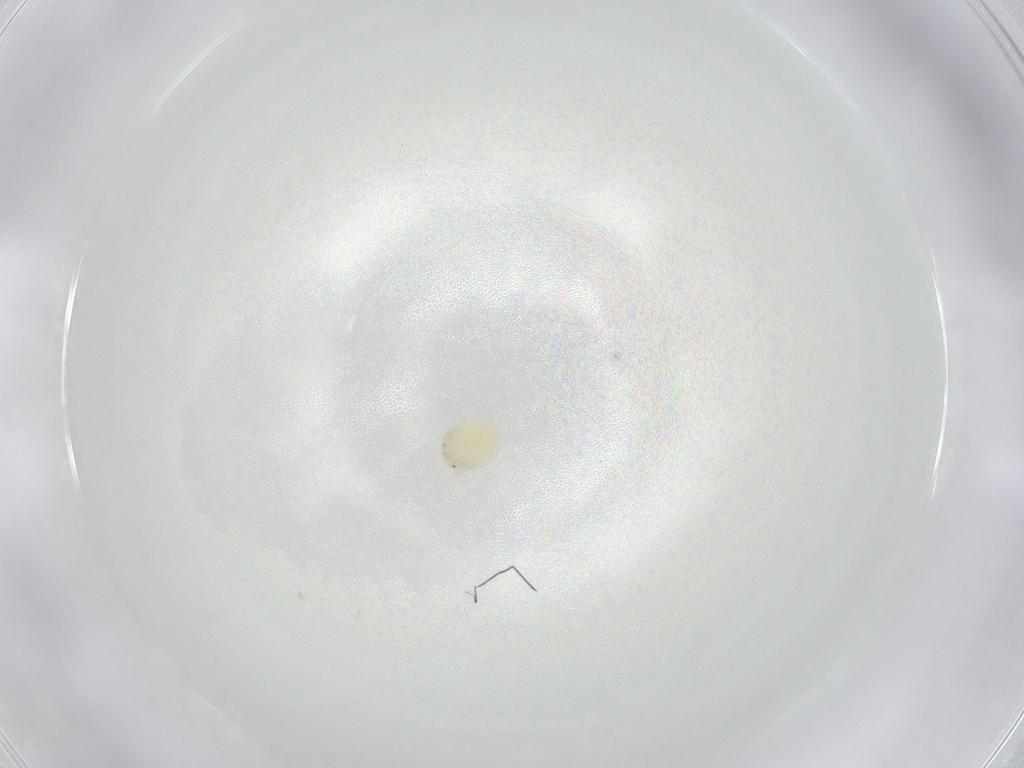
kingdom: Animalia
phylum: Arthropoda
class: Arachnida
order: Trombidiformes
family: Arrenuridae
